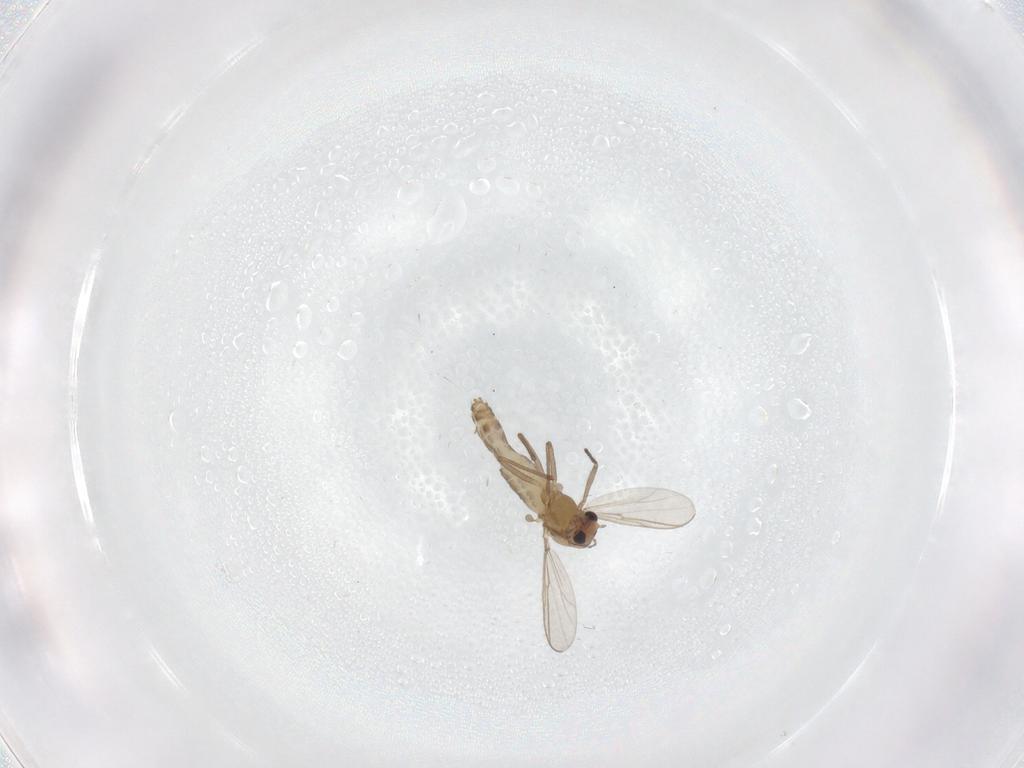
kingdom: Animalia
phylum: Arthropoda
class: Insecta
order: Diptera
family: Chironomidae
